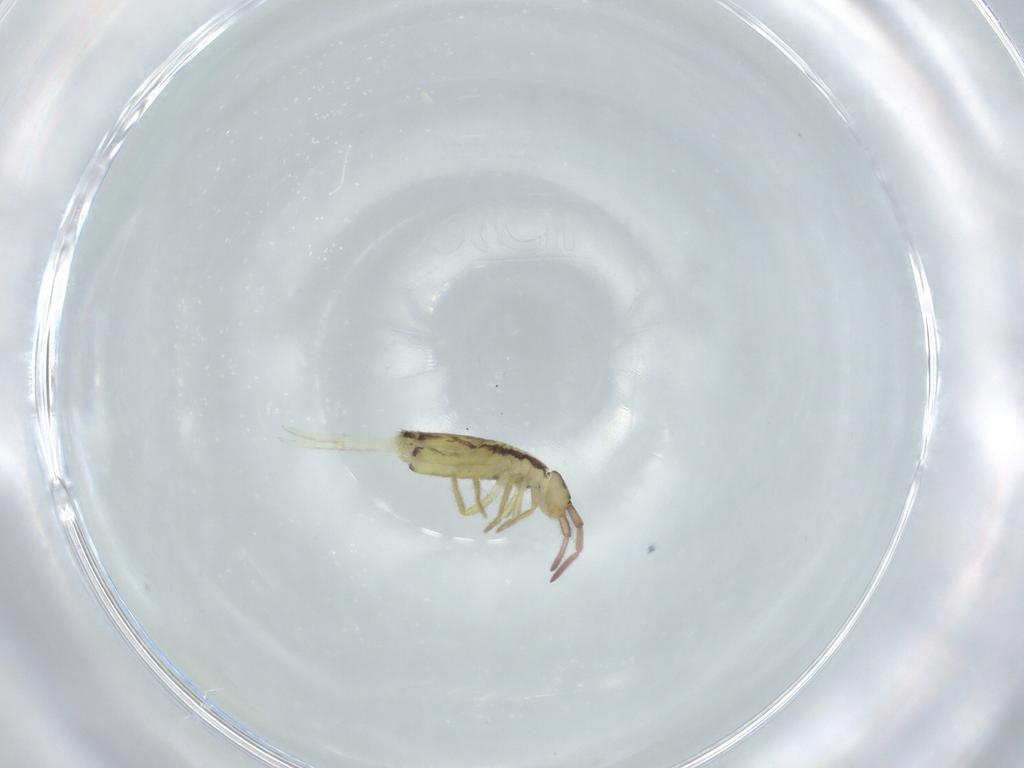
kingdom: Animalia
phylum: Arthropoda
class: Collembola
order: Entomobryomorpha
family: Entomobryidae
